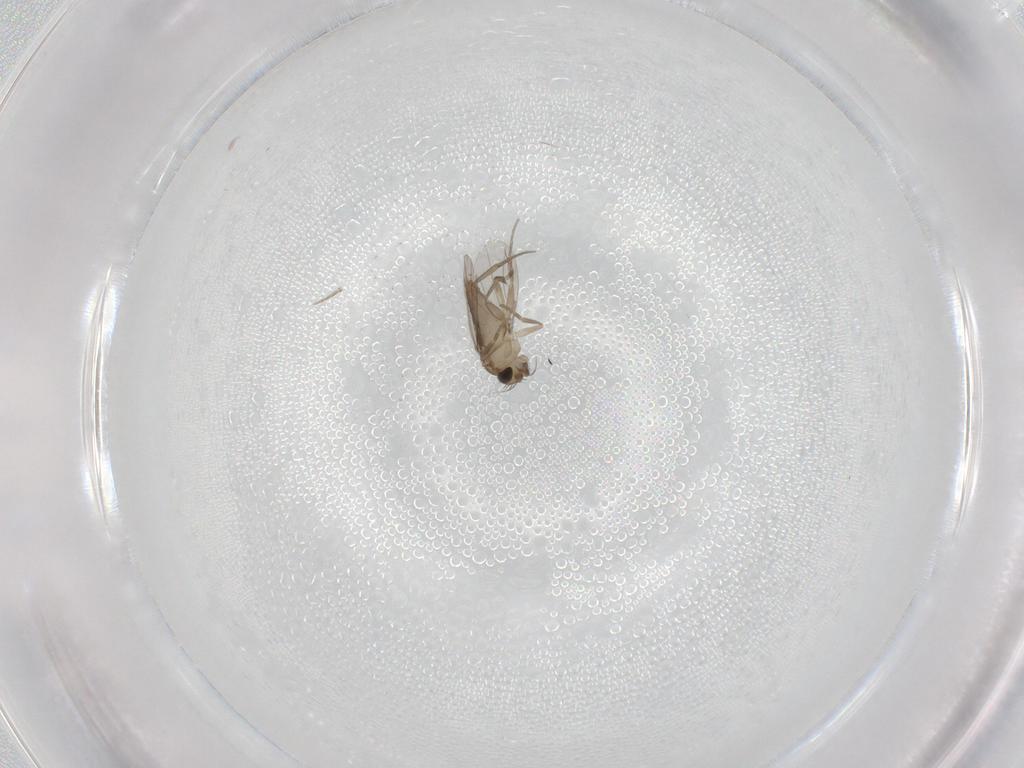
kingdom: Animalia
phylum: Arthropoda
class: Insecta
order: Diptera
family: Phoridae
